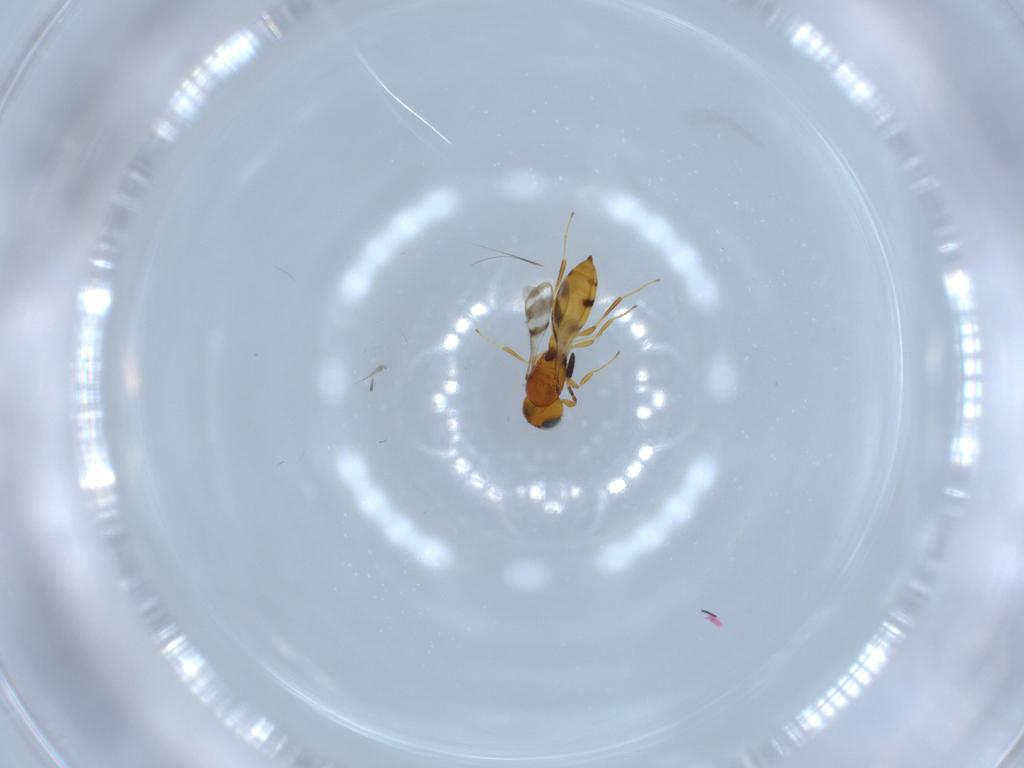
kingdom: Animalia
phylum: Arthropoda
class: Insecta
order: Hymenoptera
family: Scelionidae
